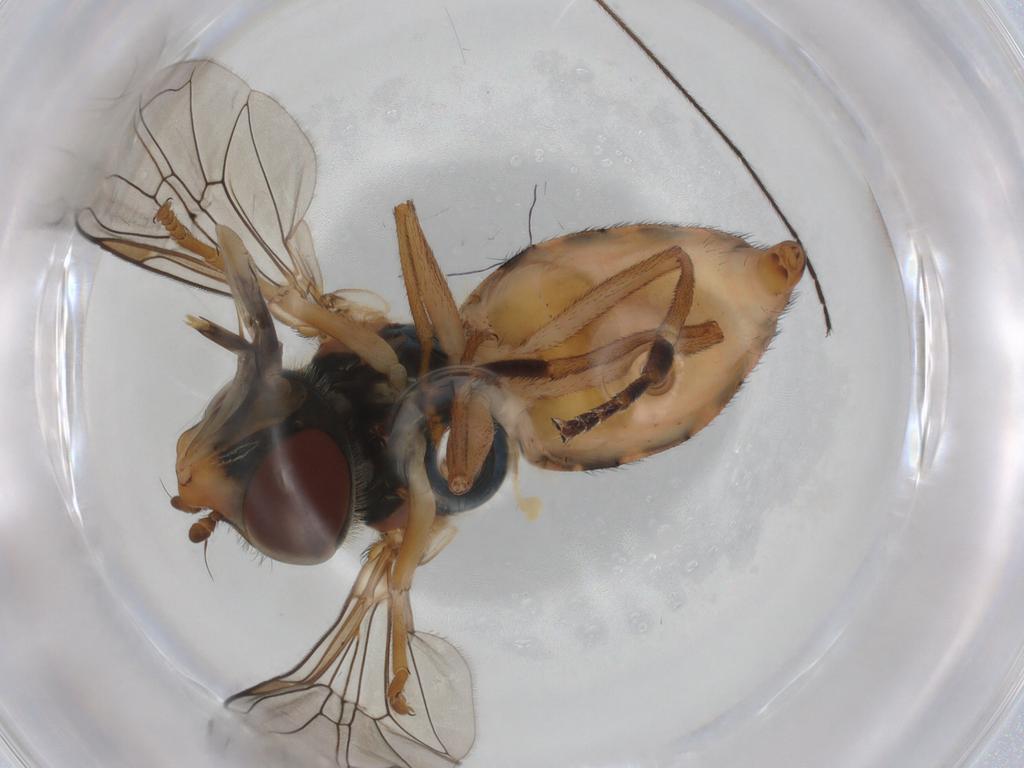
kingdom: Animalia
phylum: Arthropoda
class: Insecta
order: Diptera
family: Syrphidae
